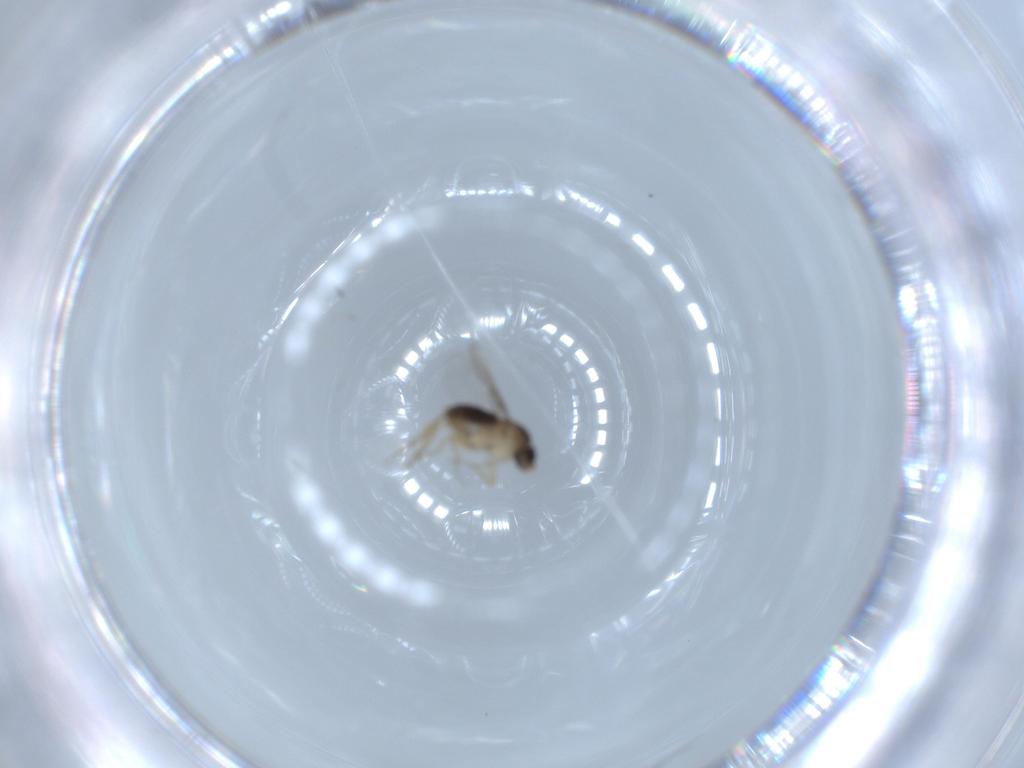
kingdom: Animalia
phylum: Arthropoda
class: Insecta
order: Diptera
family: Phoridae
